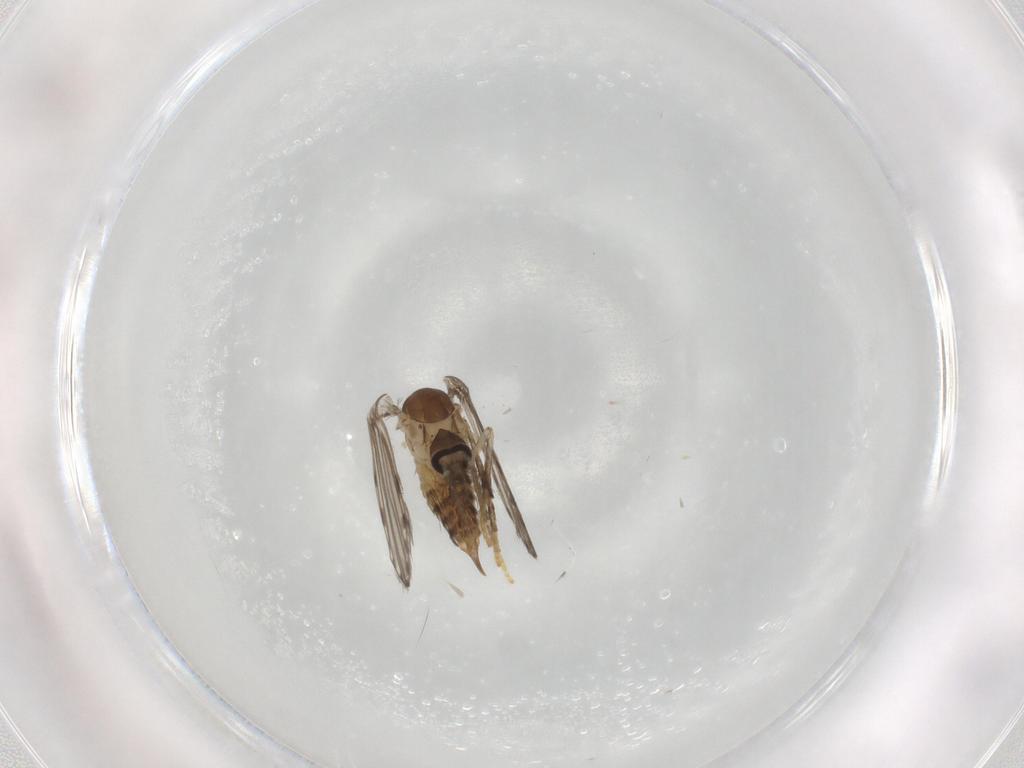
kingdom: Animalia
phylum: Arthropoda
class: Insecta
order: Diptera
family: Psychodidae
